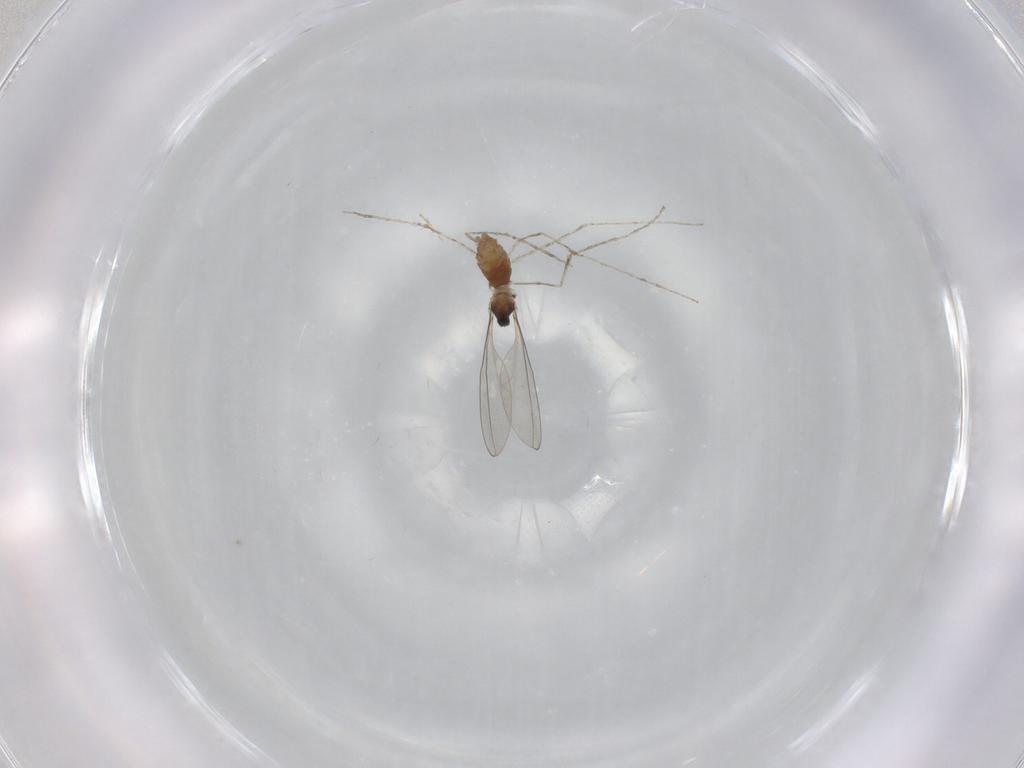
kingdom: Animalia
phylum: Arthropoda
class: Insecta
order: Diptera
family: Cecidomyiidae
